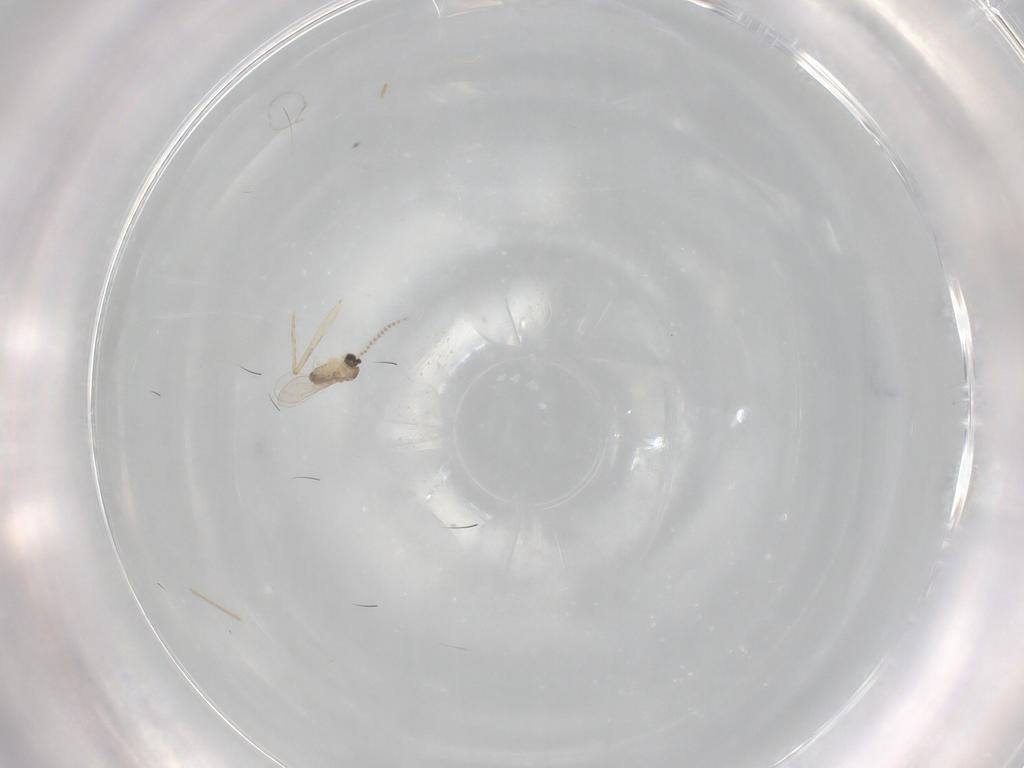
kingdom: Animalia
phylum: Arthropoda
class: Insecta
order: Diptera
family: Cecidomyiidae
